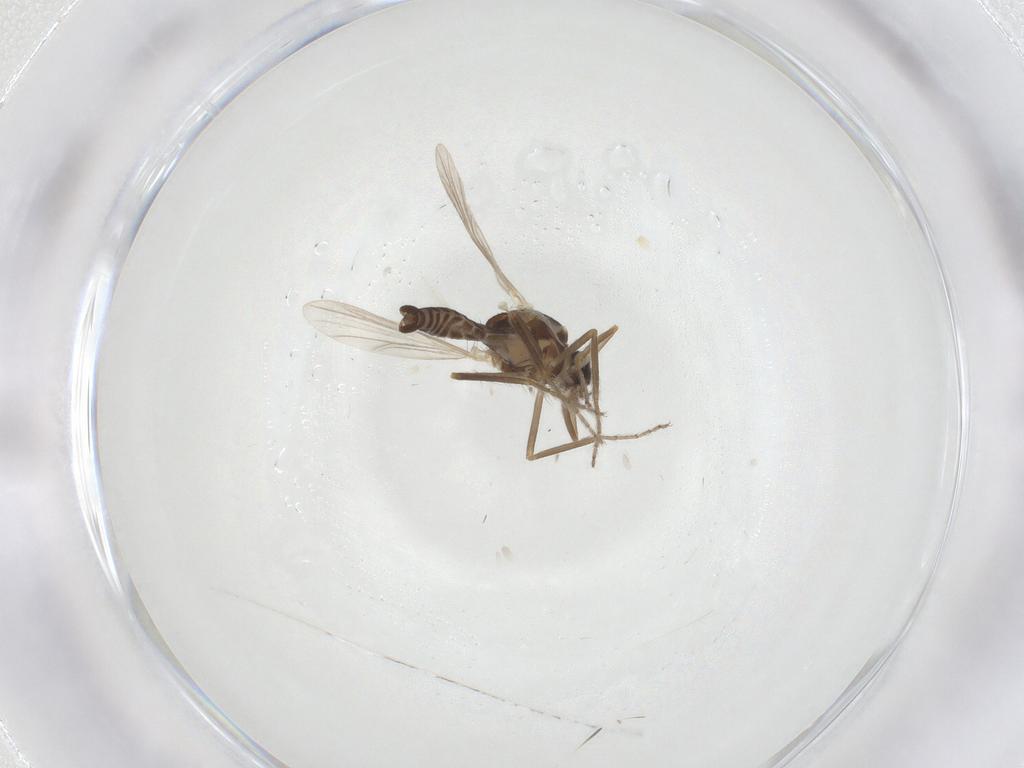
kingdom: Animalia
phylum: Arthropoda
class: Insecta
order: Diptera
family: Ceratopogonidae
